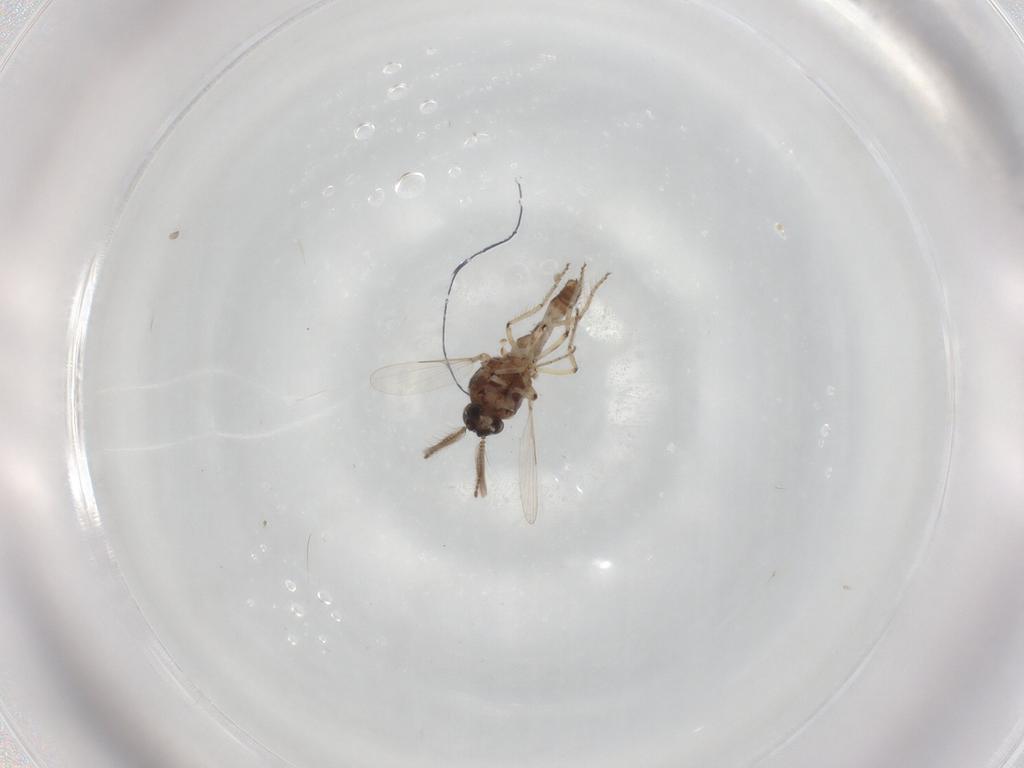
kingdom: Animalia
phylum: Arthropoda
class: Insecta
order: Diptera
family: Ceratopogonidae
